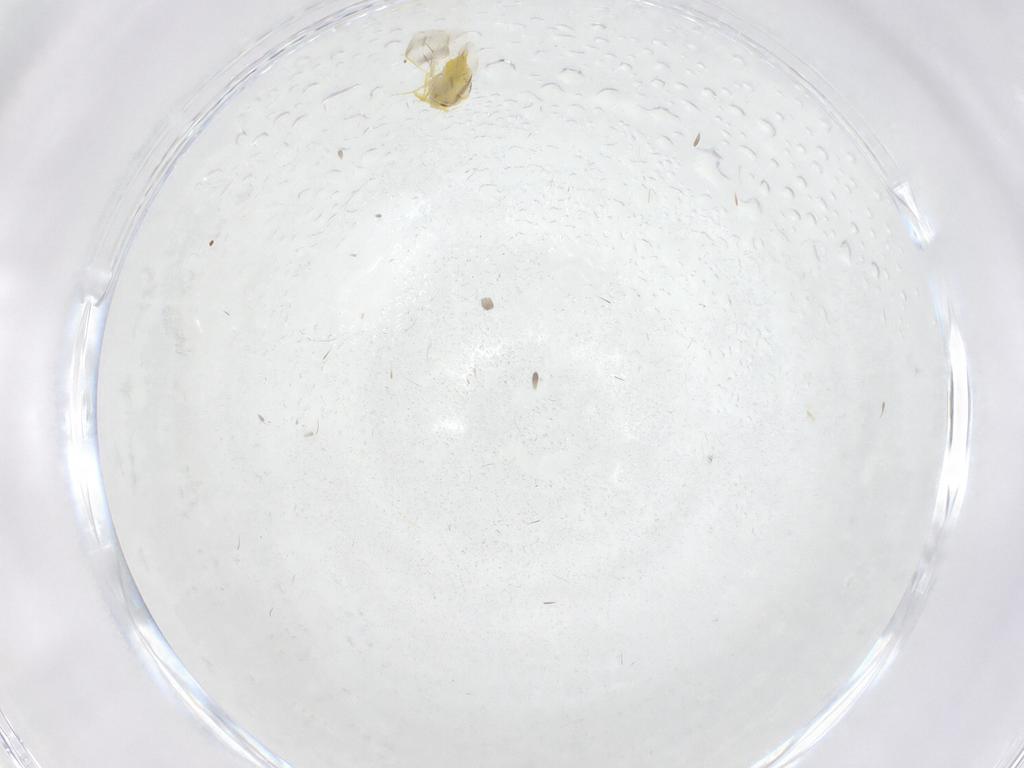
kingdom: Animalia
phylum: Arthropoda
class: Insecta
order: Hemiptera
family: Aleyrodidae
